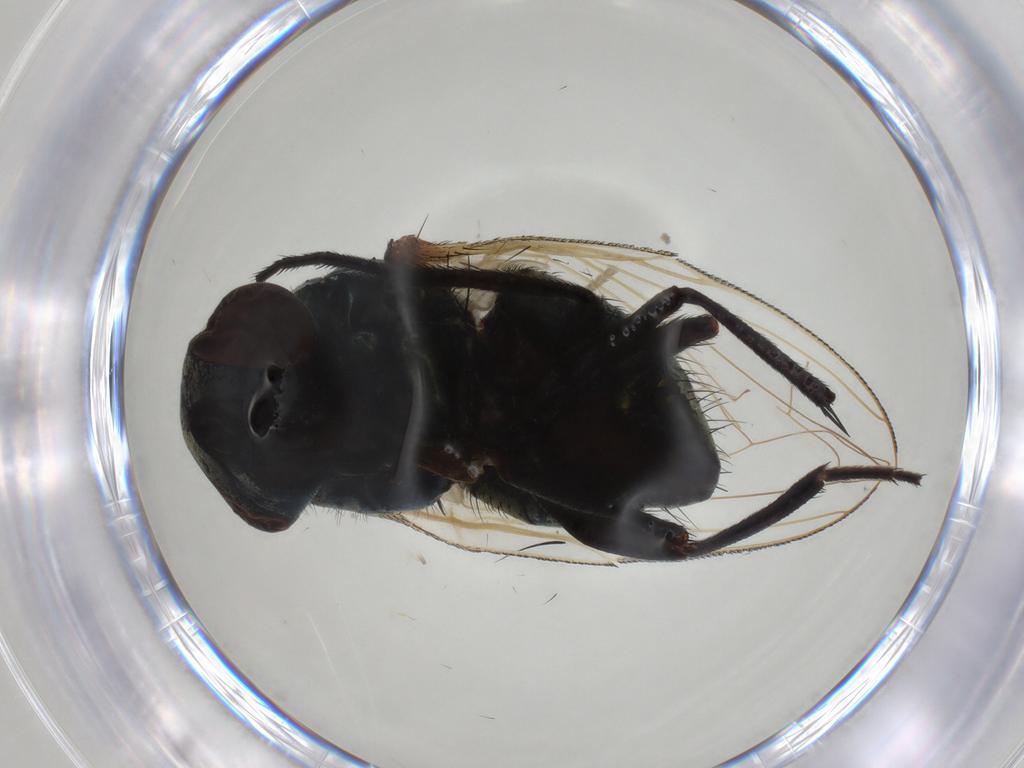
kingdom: Animalia
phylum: Arthropoda
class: Insecta
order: Diptera
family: Muscidae
